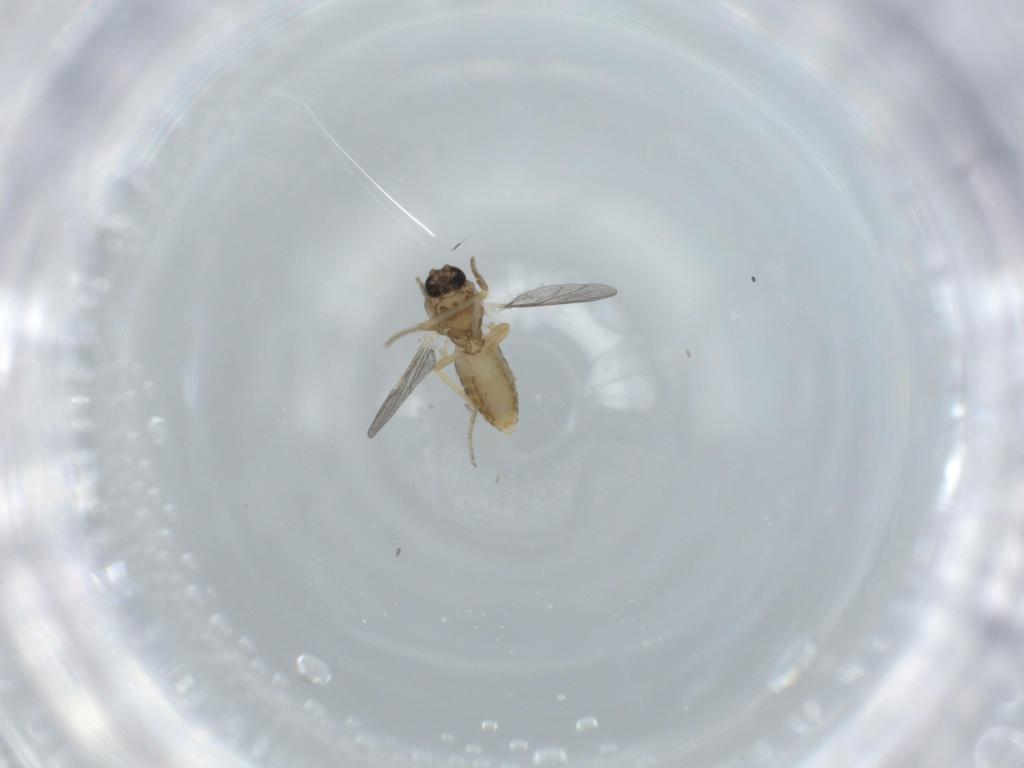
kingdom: Animalia
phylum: Arthropoda
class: Insecta
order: Diptera
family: Ceratopogonidae
